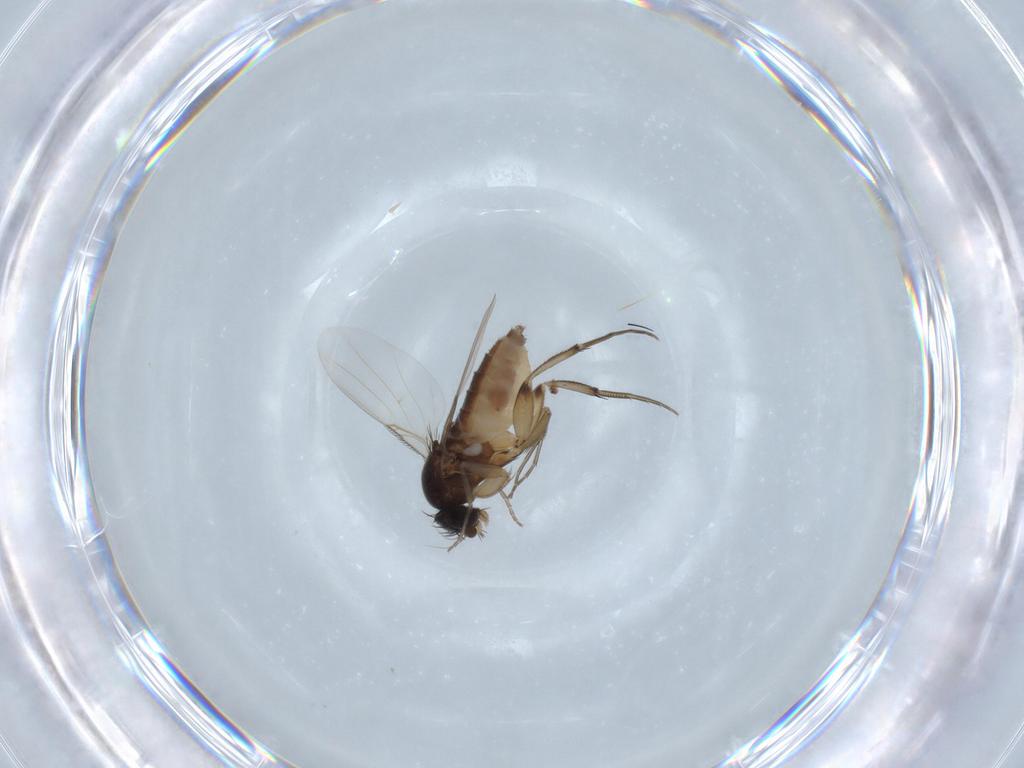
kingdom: Animalia
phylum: Arthropoda
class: Insecta
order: Diptera
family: Phoridae
